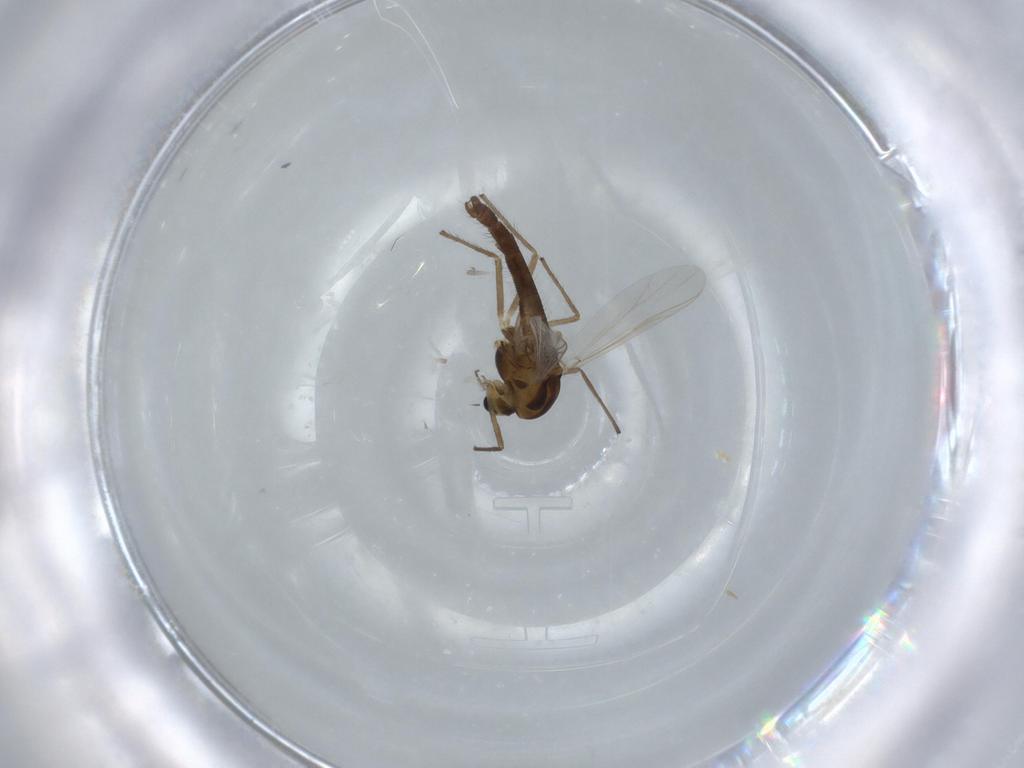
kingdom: Animalia
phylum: Arthropoda
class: Insecta
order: Diptera
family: Chironomidae
